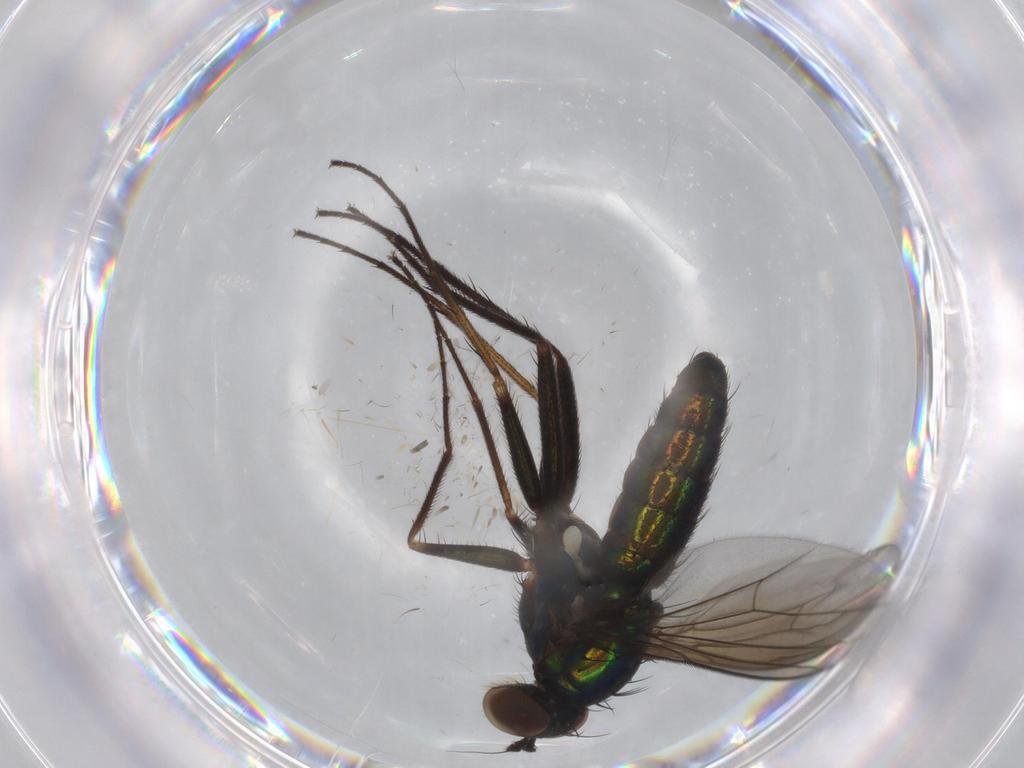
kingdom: Animalia
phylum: Arthropoda
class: Insecta
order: Diptera
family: Dolichopodidae
